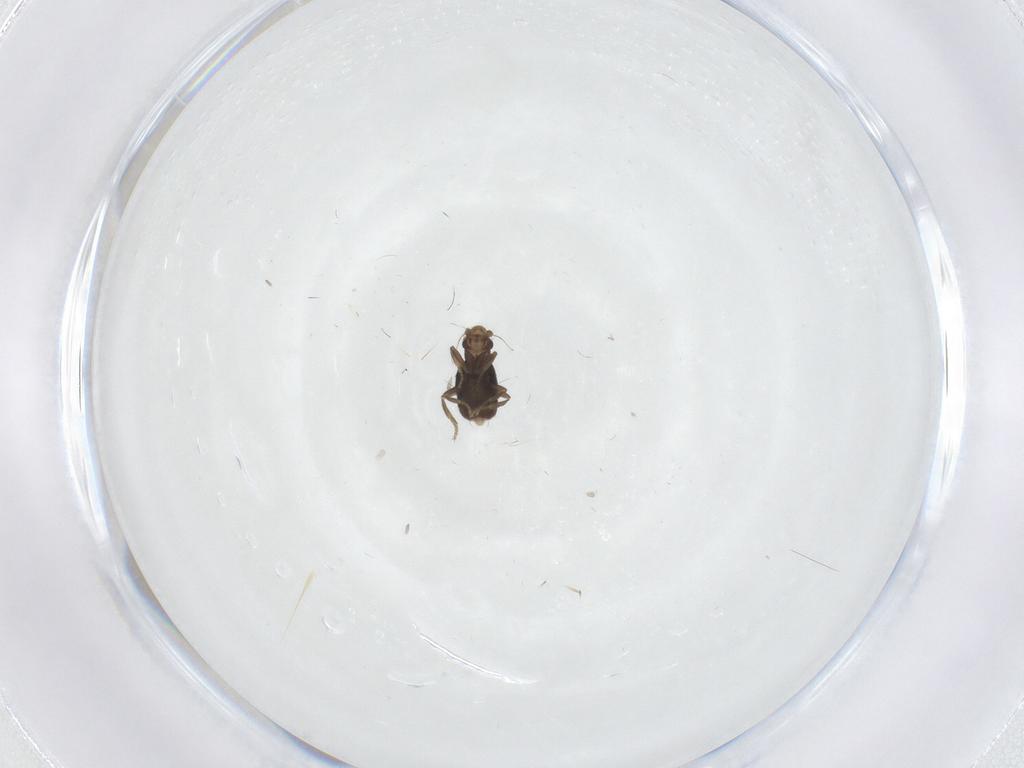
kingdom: Animalia
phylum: Arthropoda
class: Insecta
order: Diptera
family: Phoridae
